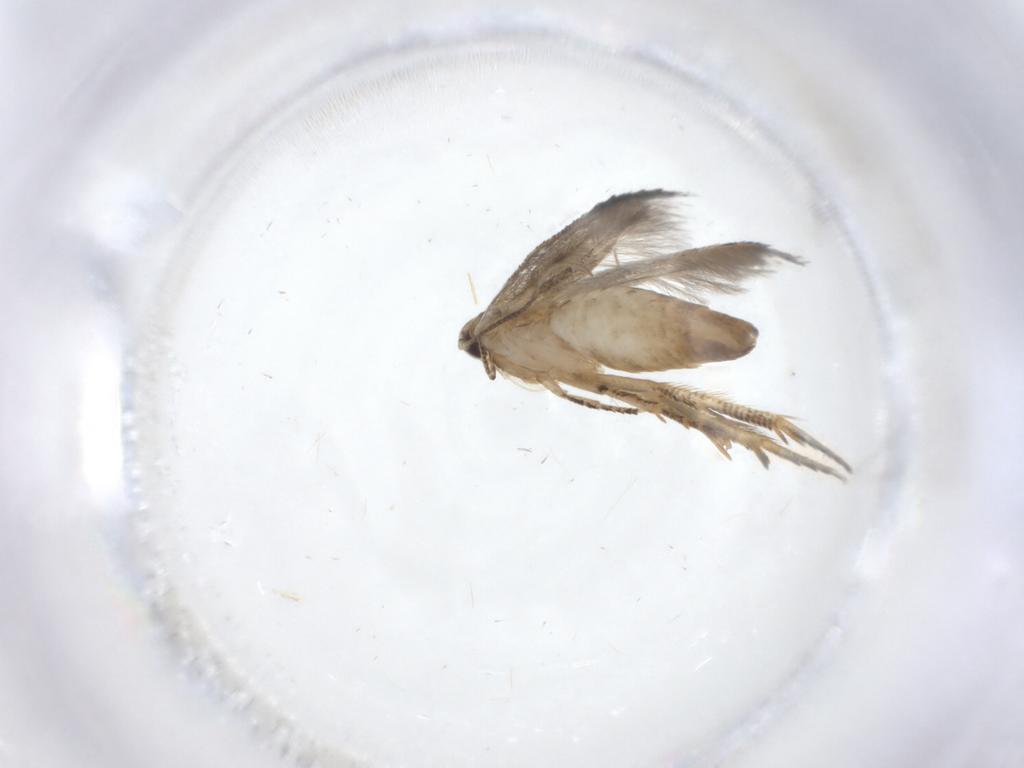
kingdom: Animalia
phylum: Arthropoda
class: Insecta
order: Lepidoptera
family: Gelechiidae
